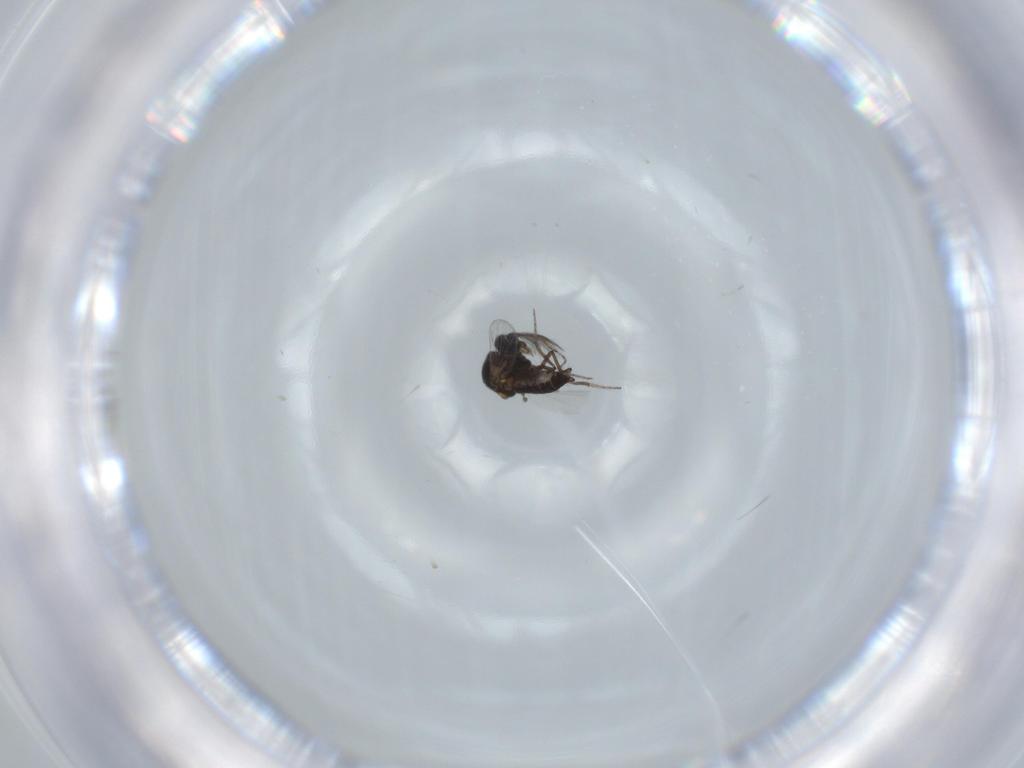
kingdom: Animalia
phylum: Arthropoda
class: Insecta
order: Diptera
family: Ceratopogonidae
